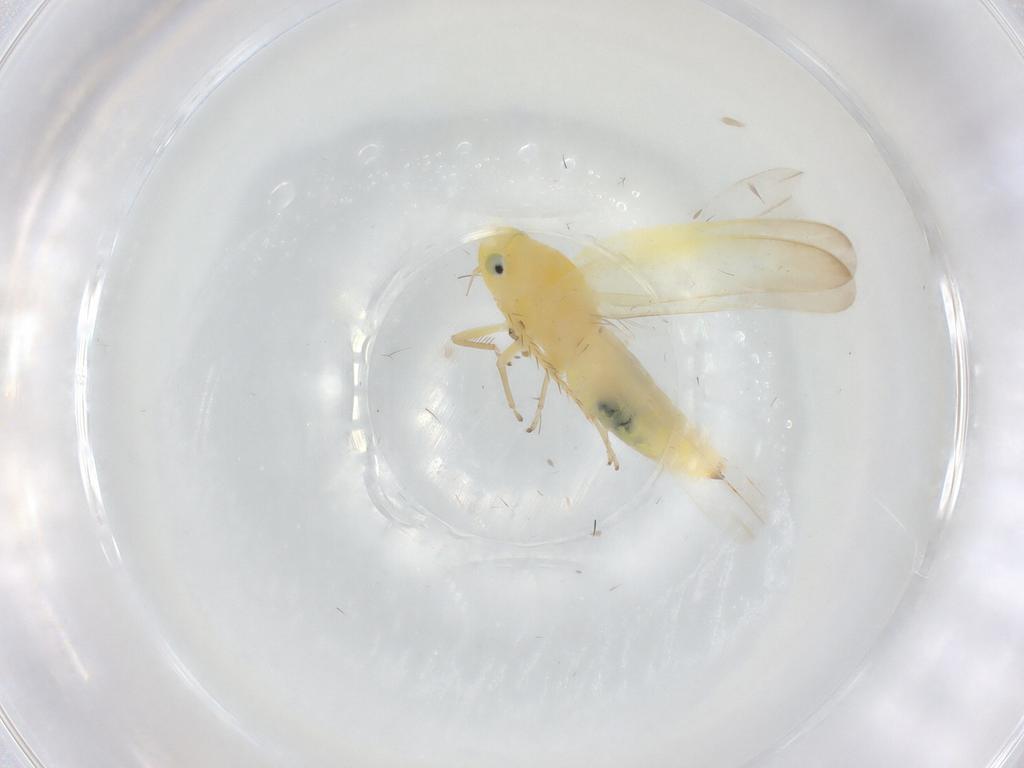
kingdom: Animalia
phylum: Arthropoda
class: Insecta
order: Hemiptera
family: Cicadellidae
